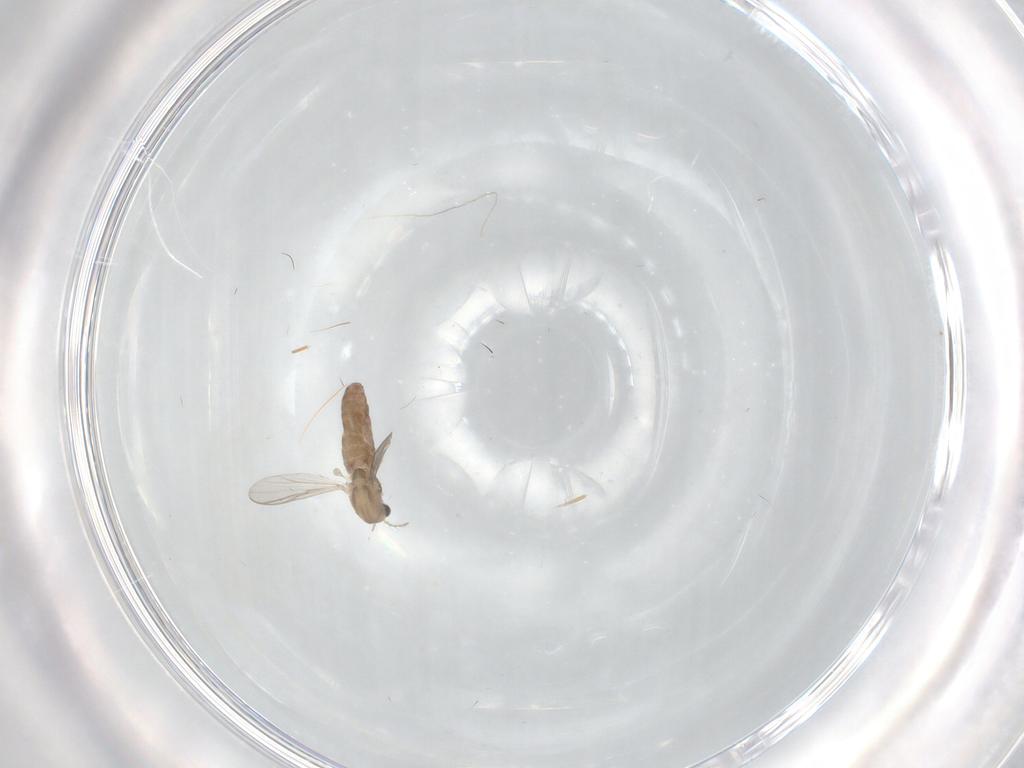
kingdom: Animalia
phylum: Arthropoda
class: Insecta
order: Diptera
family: Chironomidae
